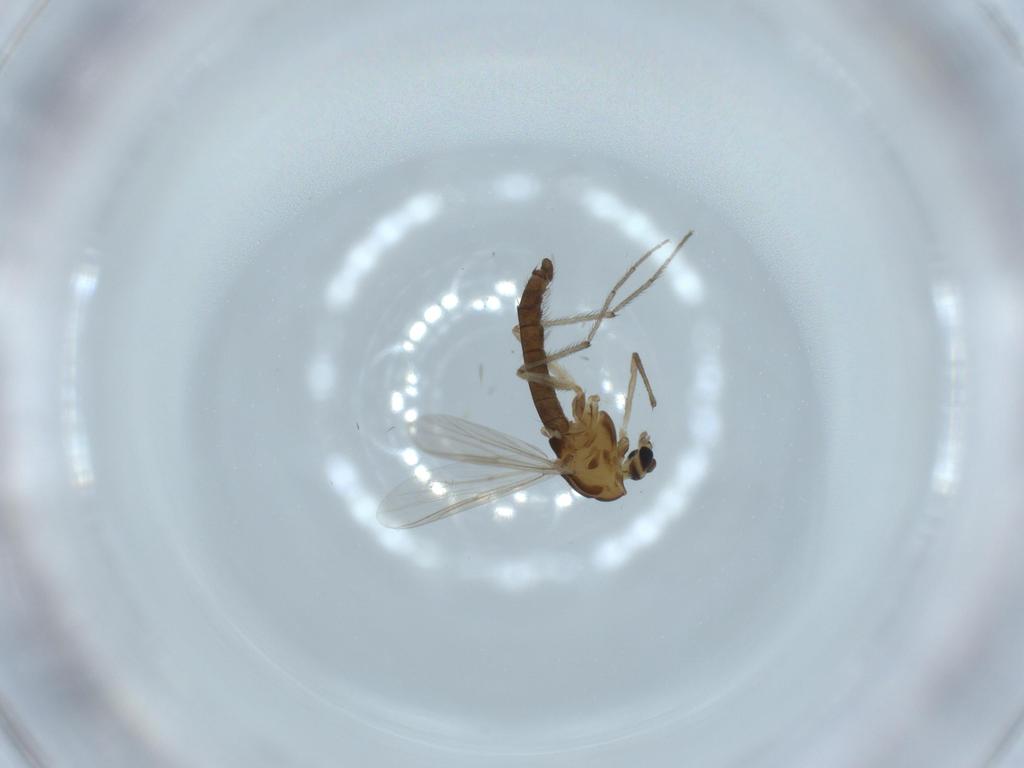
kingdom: Animalia
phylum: Arthropoda
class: Insecta
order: Diptera
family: Chironomidae
